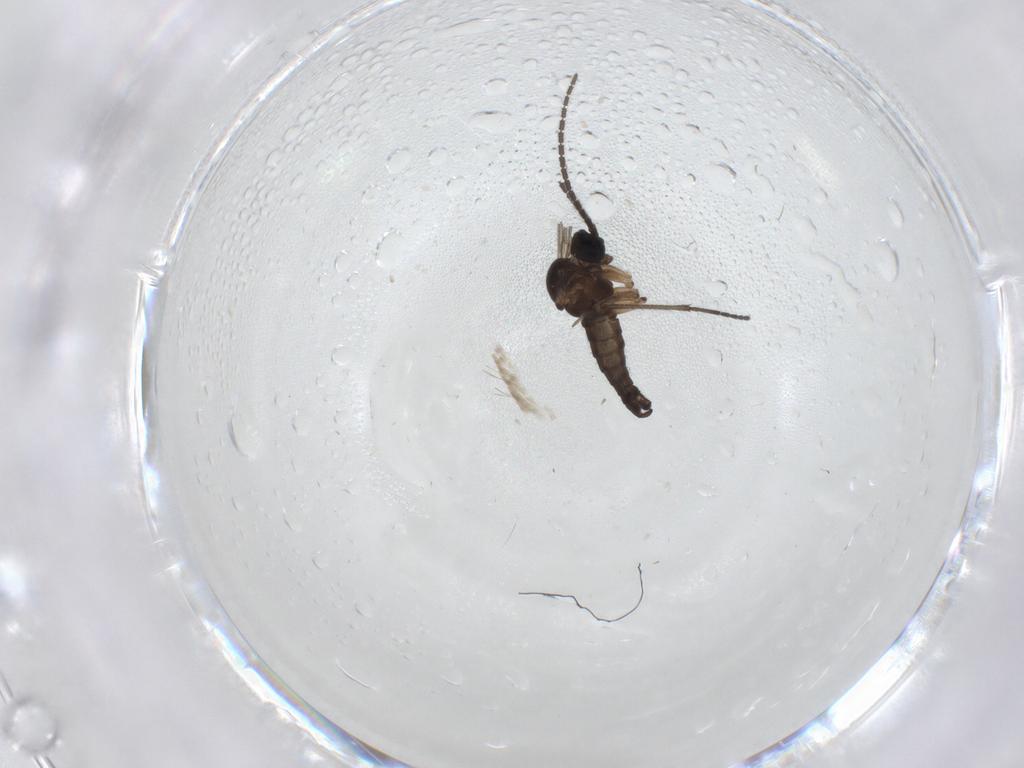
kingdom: Animalia
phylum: Arthropoda
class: Insecta
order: Diptera
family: Sciaridae
